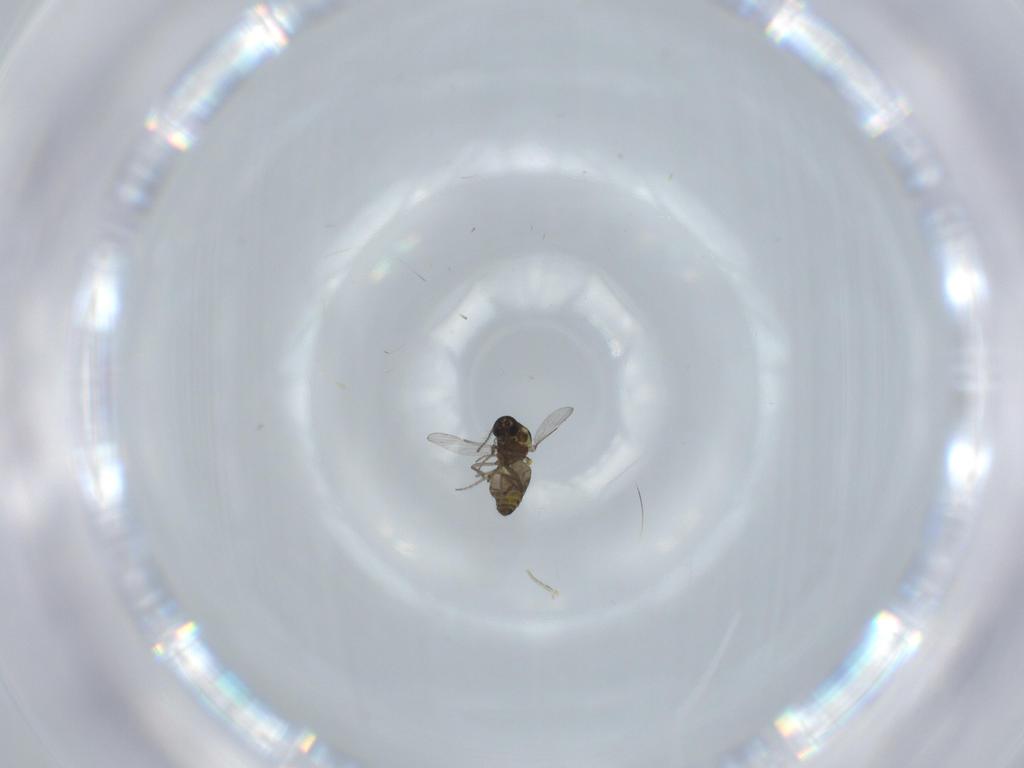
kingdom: Animalia
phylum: Arthropoda
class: Insecta
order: Diptera
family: Ceratopogonidae
